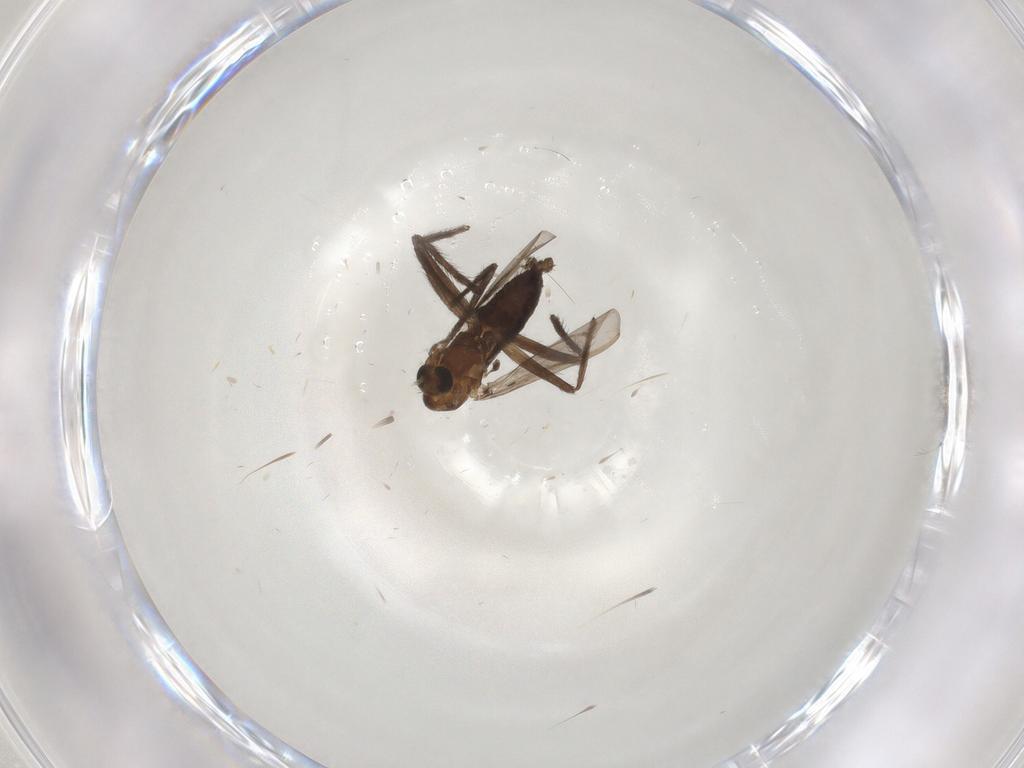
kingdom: Animalia
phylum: Arthropoda
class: Insecta
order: Diptera
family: Chironomidae
